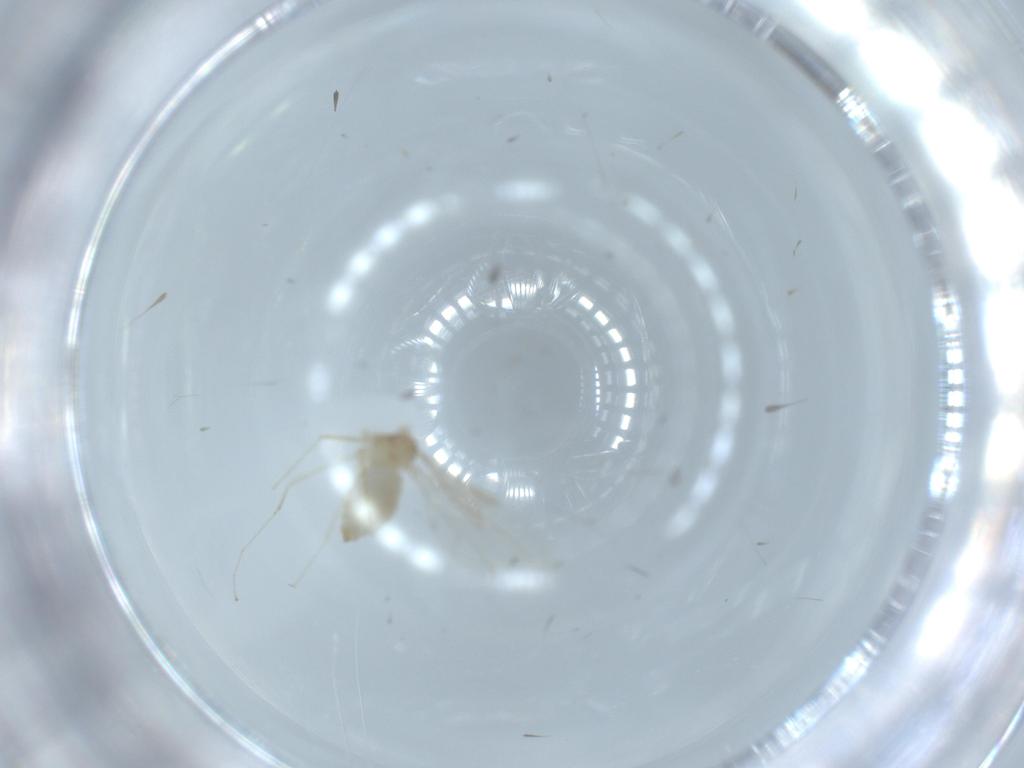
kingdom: Animalia
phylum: Arthropoda
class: Insecta
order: Diptera
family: Cecidomyiidae
